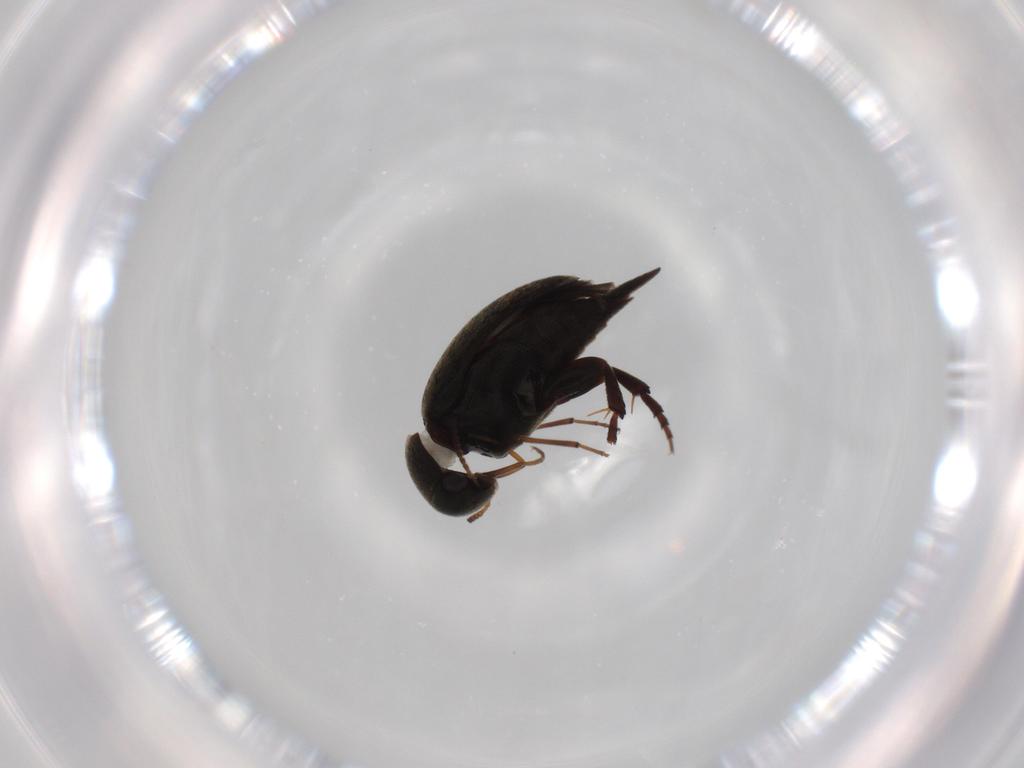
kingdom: Animalia
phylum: Arthropoda
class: Insecta
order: Coleoptera
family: Mordellidae
